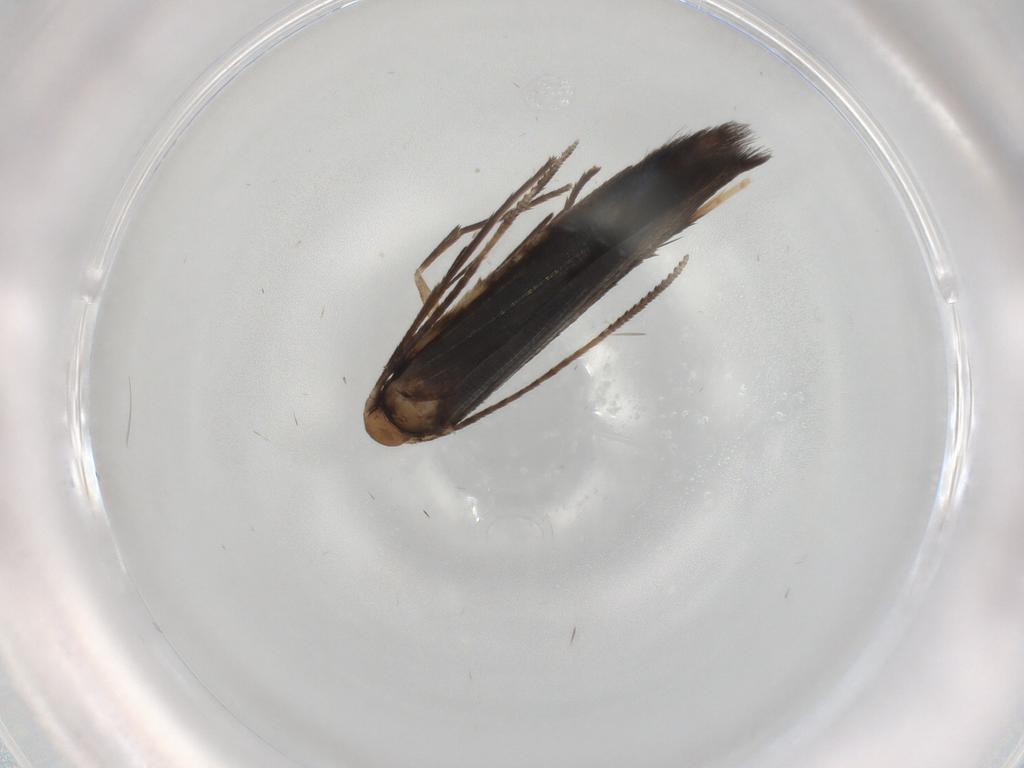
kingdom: Animalia
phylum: Arthropoda
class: Insecta
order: Lepidoptera
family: Noctuidae
